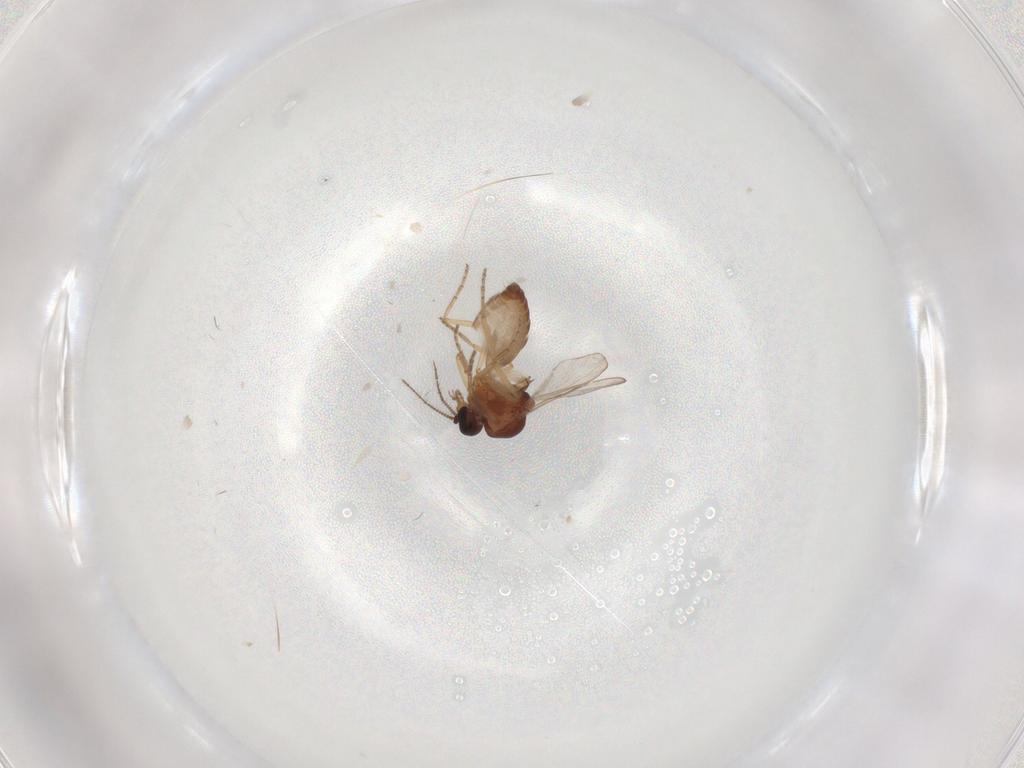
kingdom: Animalia
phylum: Arthropoda
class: Insecta
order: Diptera
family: Ceratopogonidae
